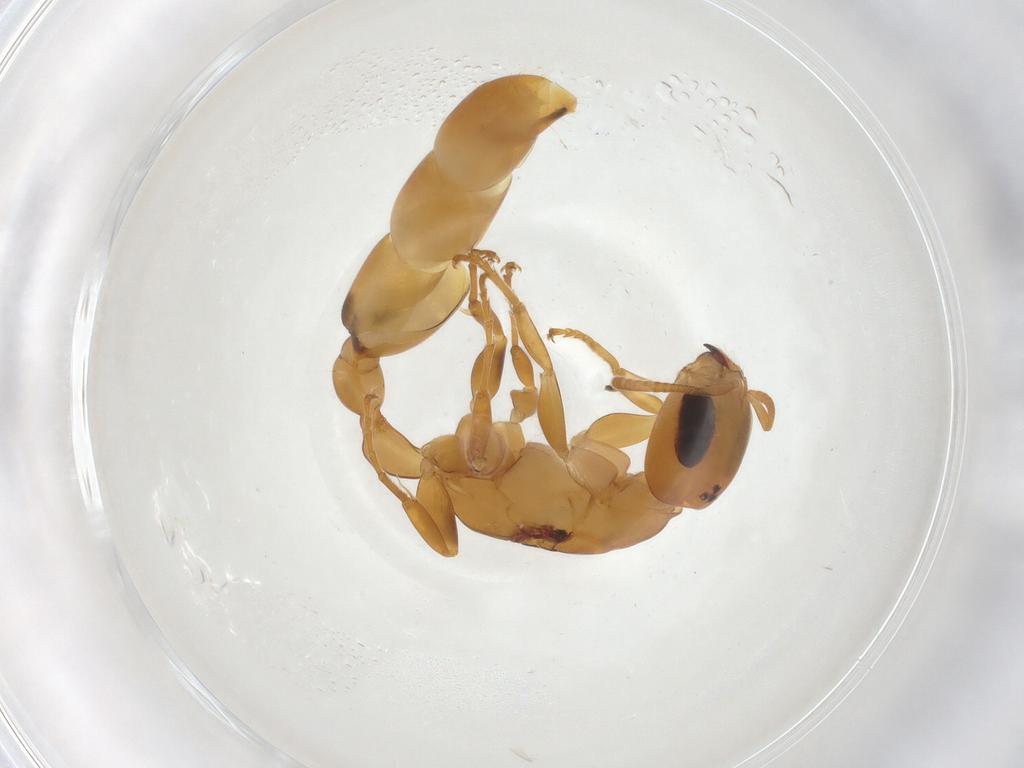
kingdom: Animalia
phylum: Arthropoda
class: Insecta
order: Hymenoptera
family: Formicidae
